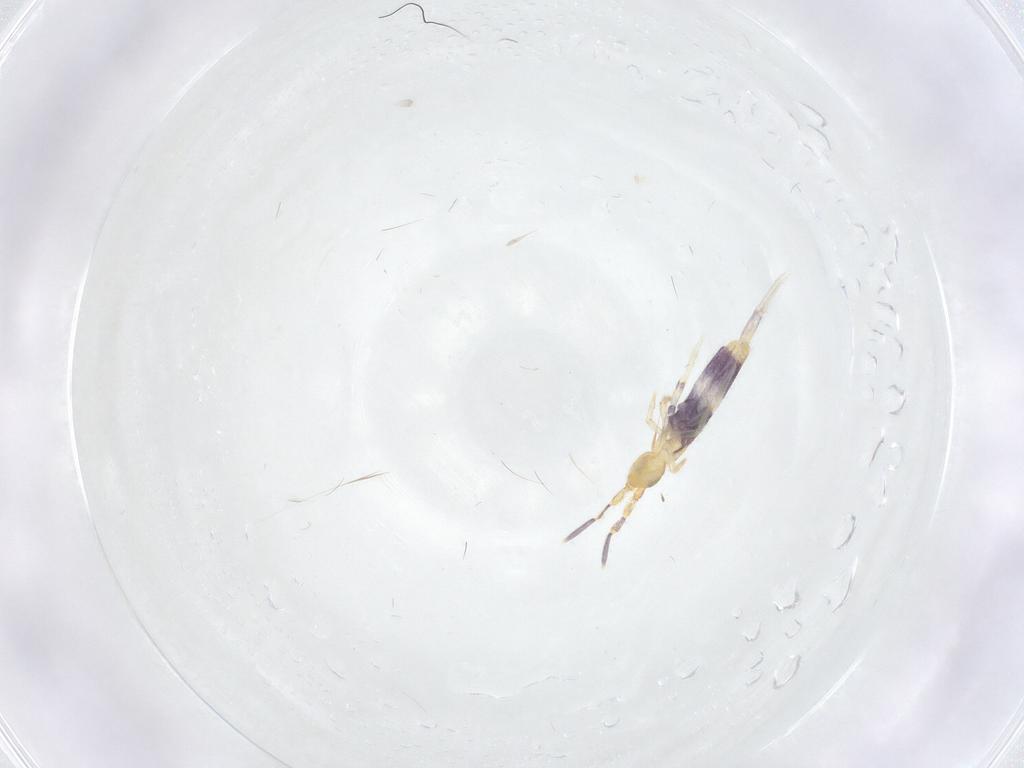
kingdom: Animalia
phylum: Arthropoda
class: Collembola
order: Entomobryomorpha
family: Entomobryidae
